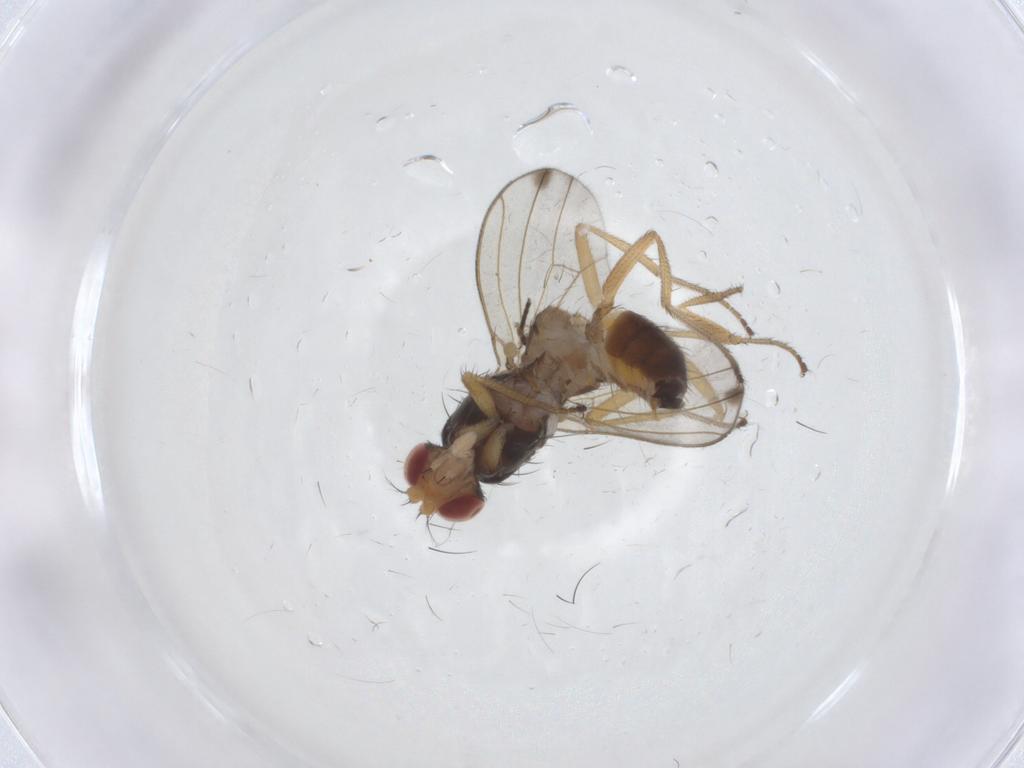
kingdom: Animalia
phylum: Arthropoda
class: Insecta
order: Diptera
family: Drosophilidae
